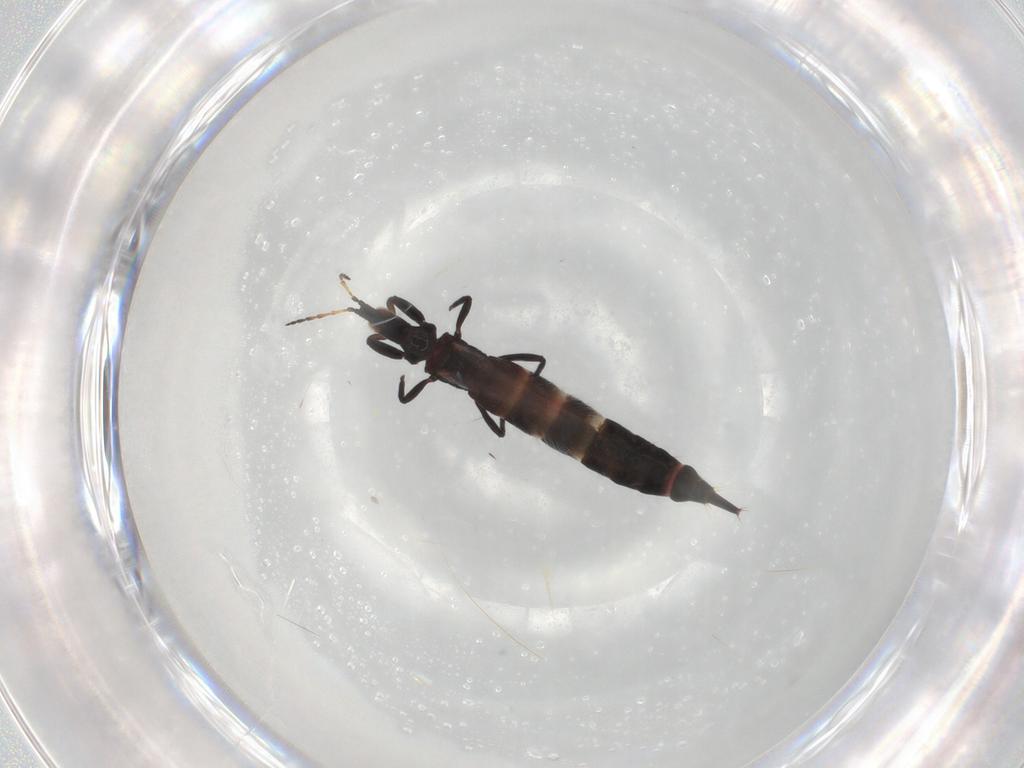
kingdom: Animalia
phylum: Arthropoda
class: Insecta
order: Thysanoptera
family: Phlaeothripidae
